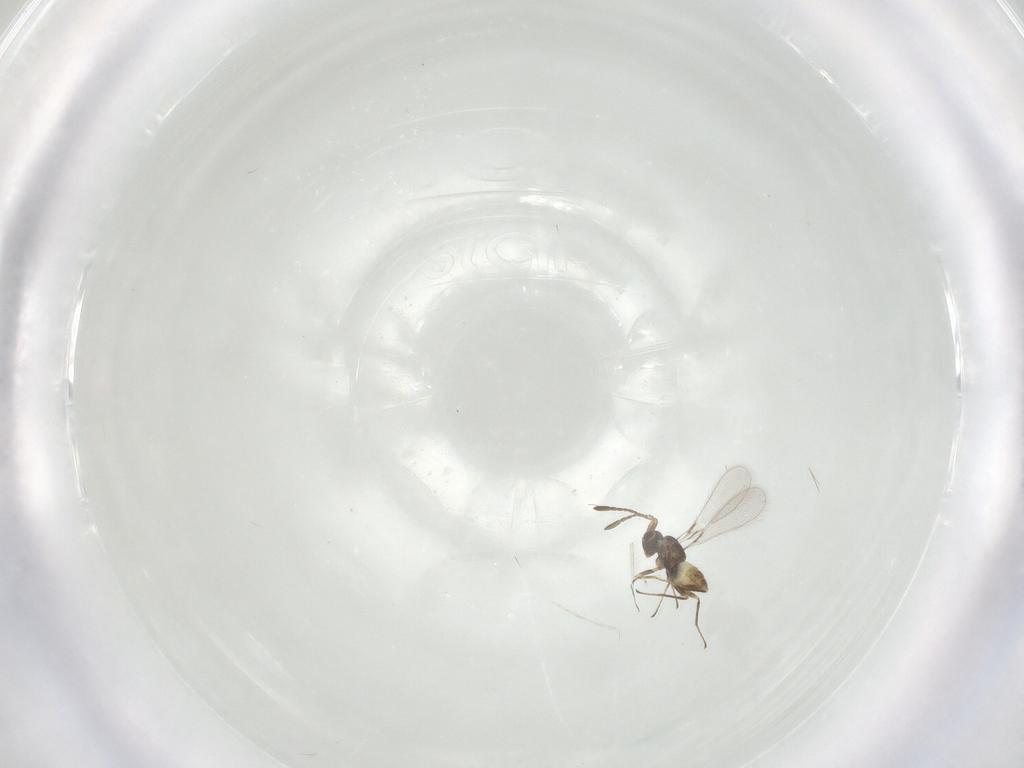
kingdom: Animalia
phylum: Arthropoda
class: Insecta
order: Hymenoptera
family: Mymaridae
